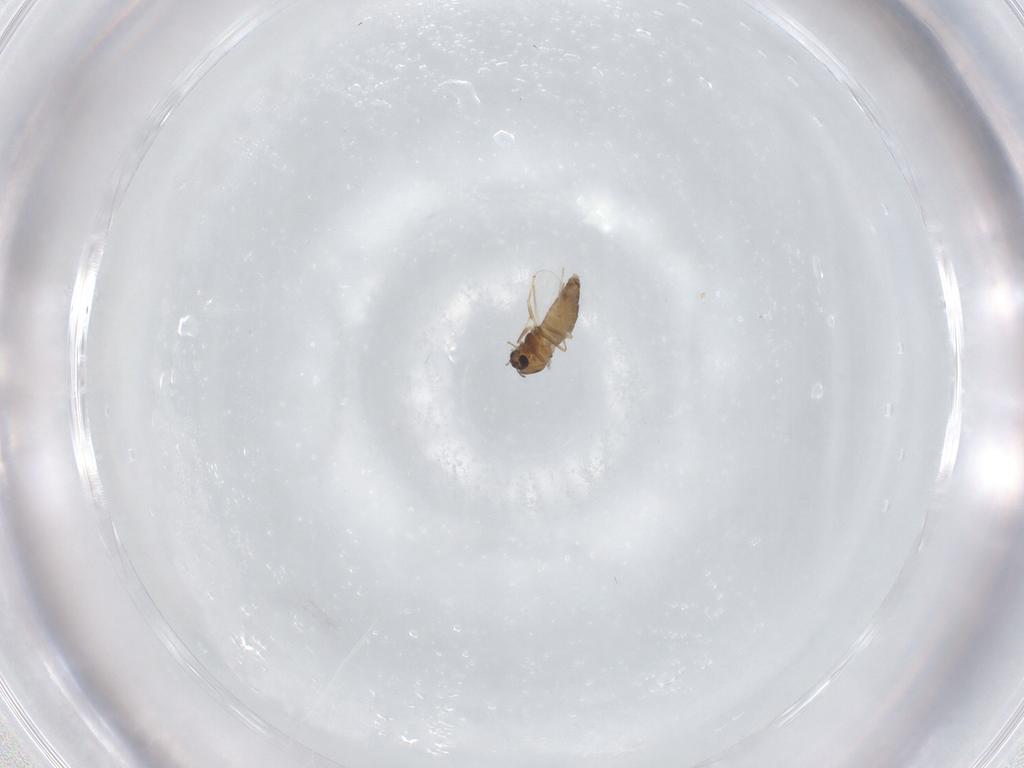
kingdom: Animalia
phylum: Arthropoda
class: Insecta
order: Diptera
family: Chironomidae
